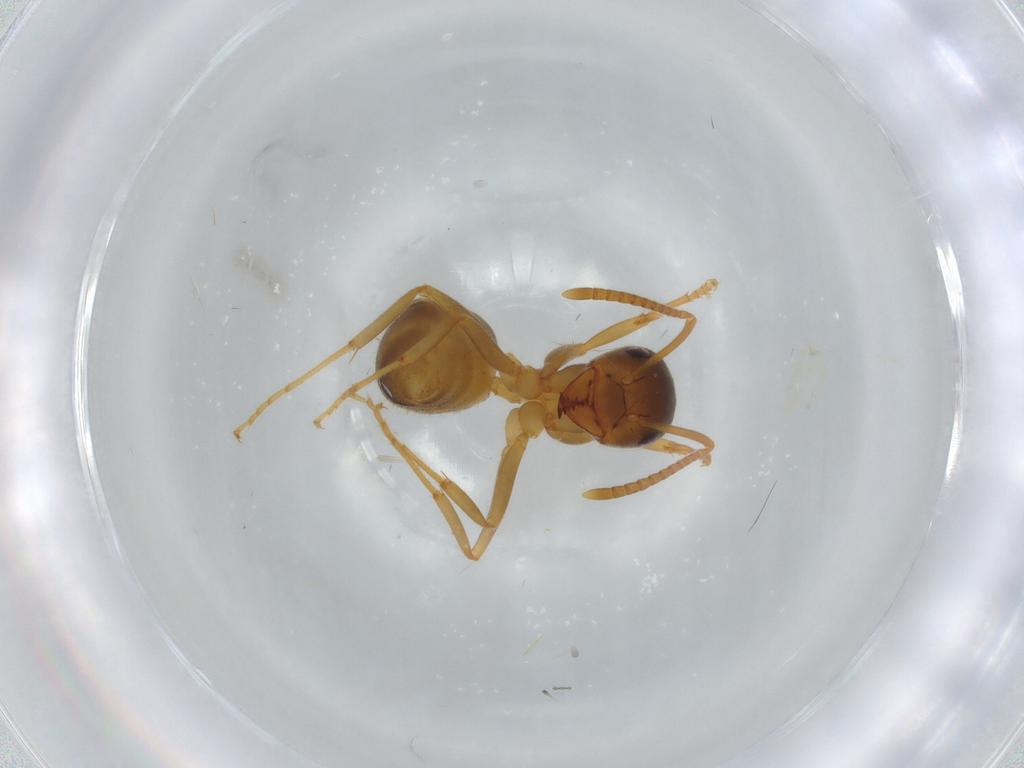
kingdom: Animalia
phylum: Arthropoda
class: Insecta
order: Hymenoptera
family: Formicidae
